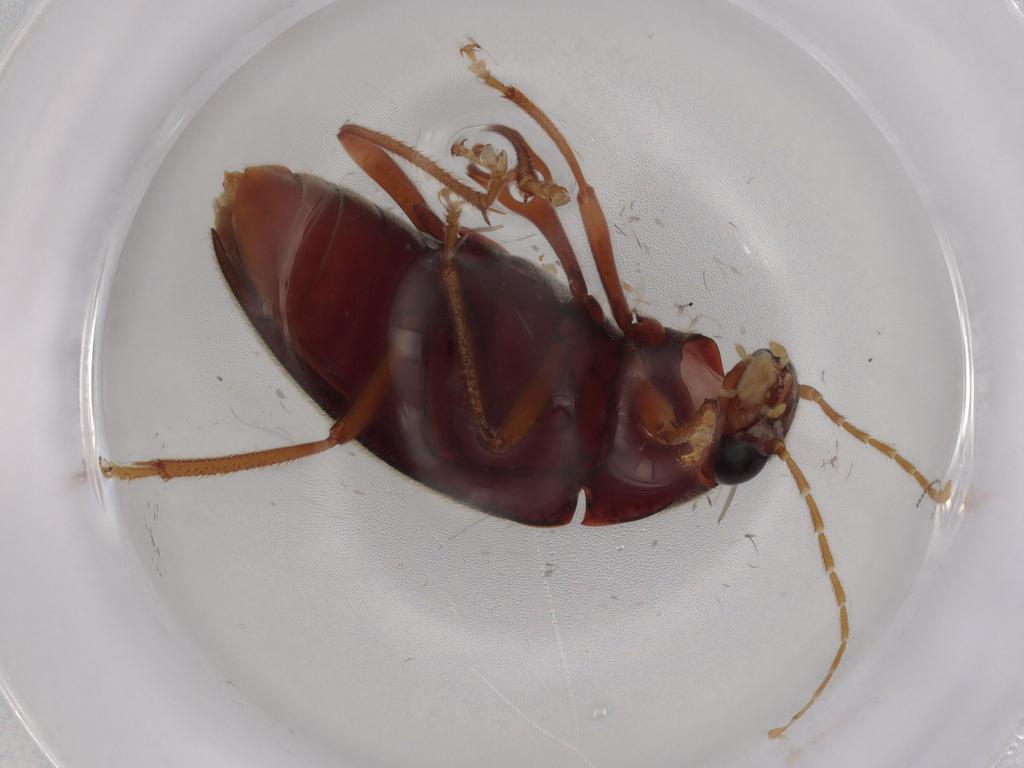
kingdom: Animalia
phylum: Arthropoda
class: Insecta
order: Coleoptera
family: Ptilodactylidae
